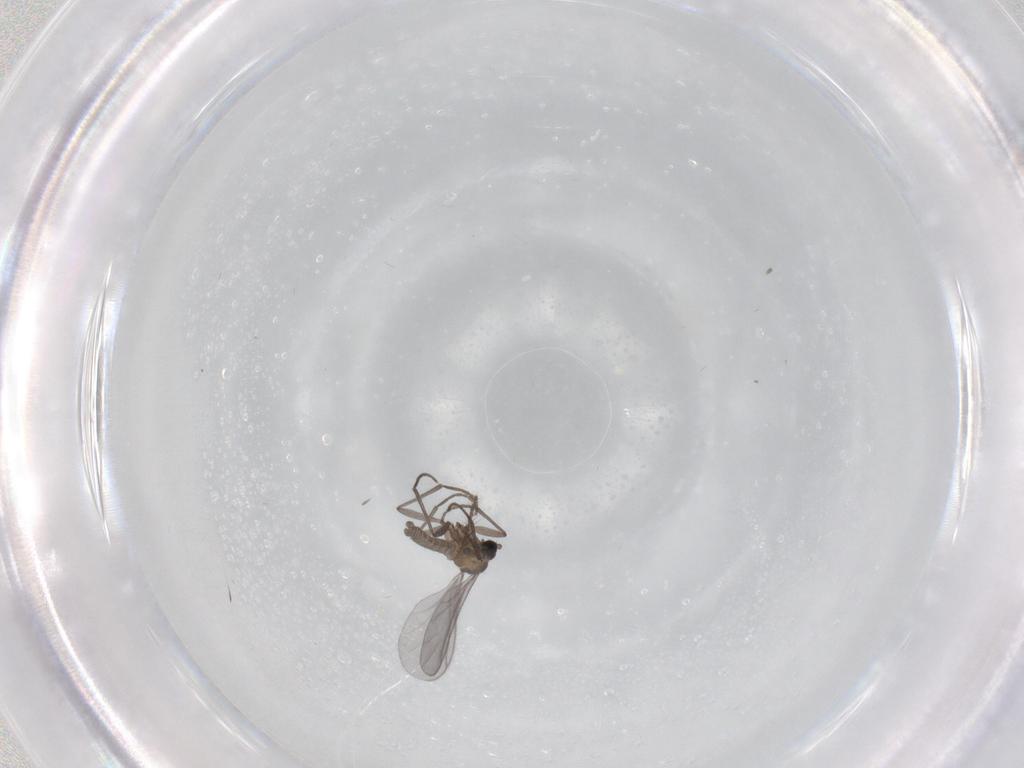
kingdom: Animalia
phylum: Arthropoda
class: Insecta
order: Diptera
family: Sciaridae
